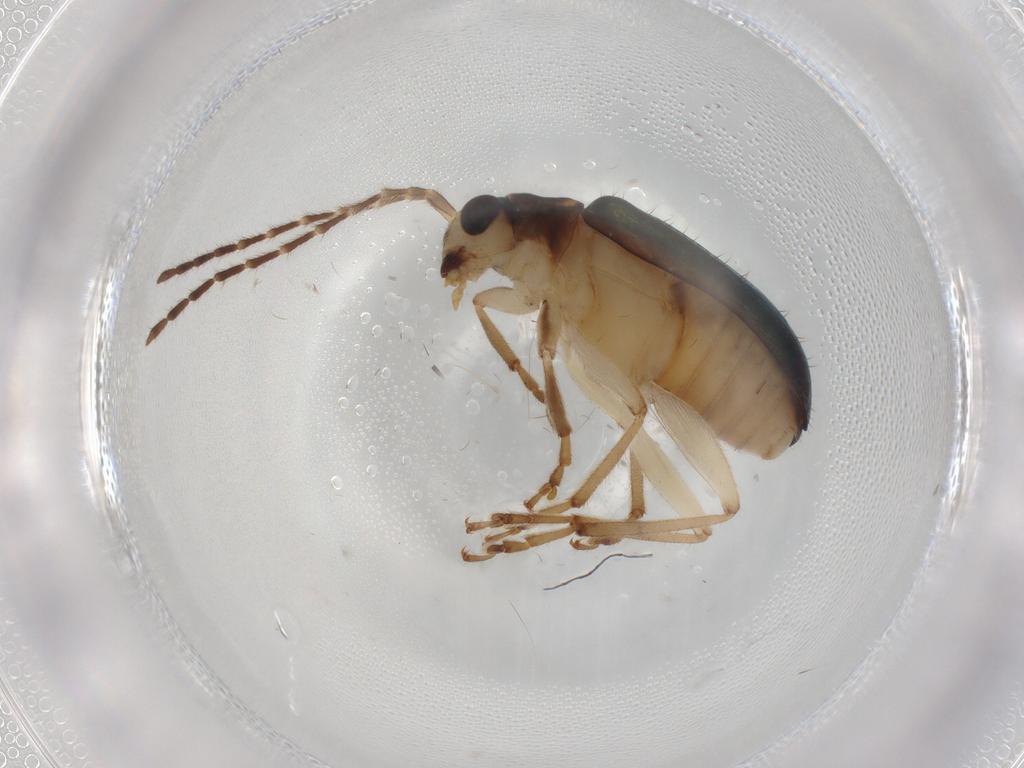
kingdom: Animalia
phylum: Arthropoda
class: Insecta
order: Coleoptera
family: Chrysomelidae
